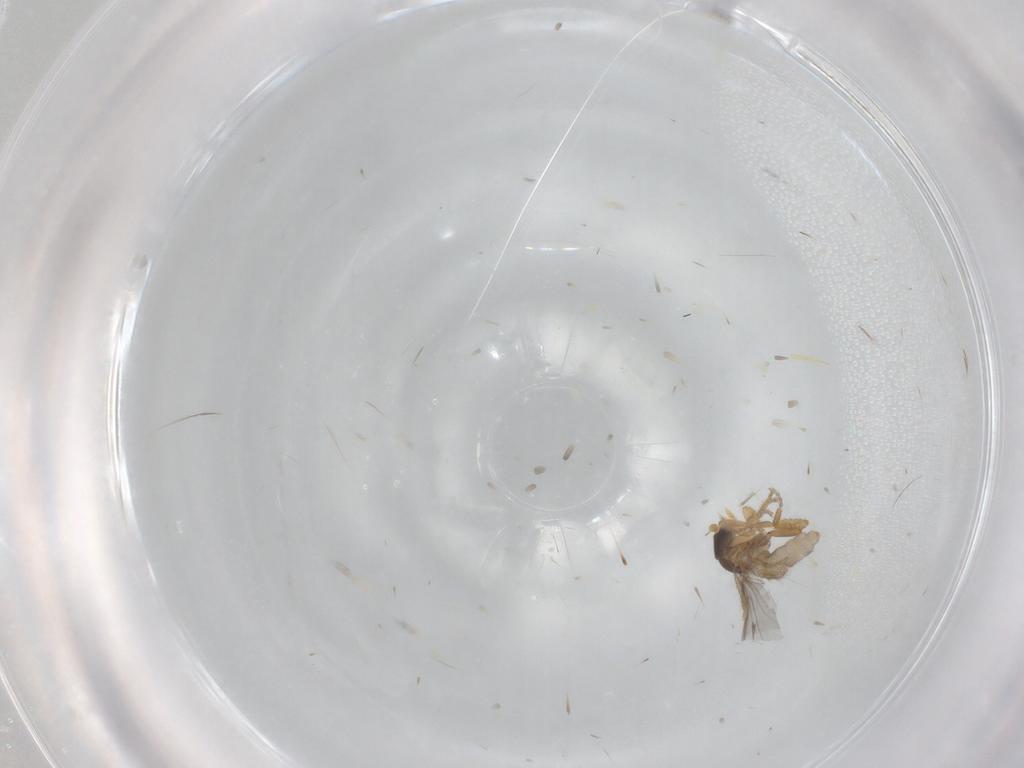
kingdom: Animalia
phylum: Arthropoda
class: Insecta
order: Diptera
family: Phoridae
